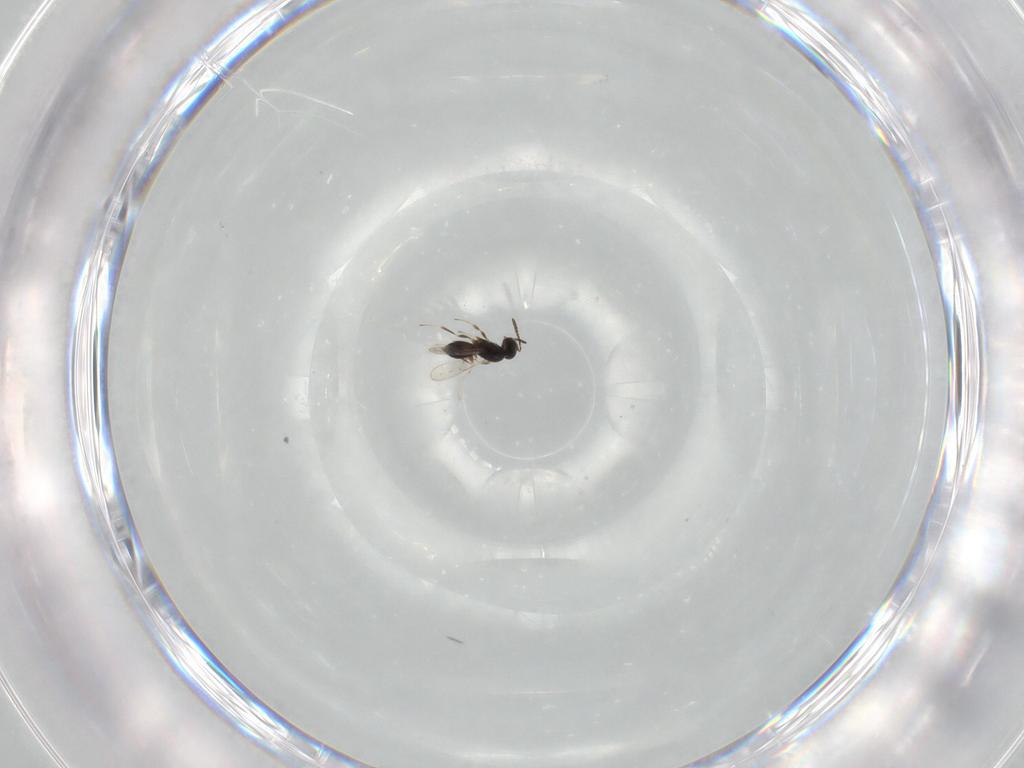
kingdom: Animalia
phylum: Arthropoda
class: Insecta
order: Hymenoptera
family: Scelionidae
